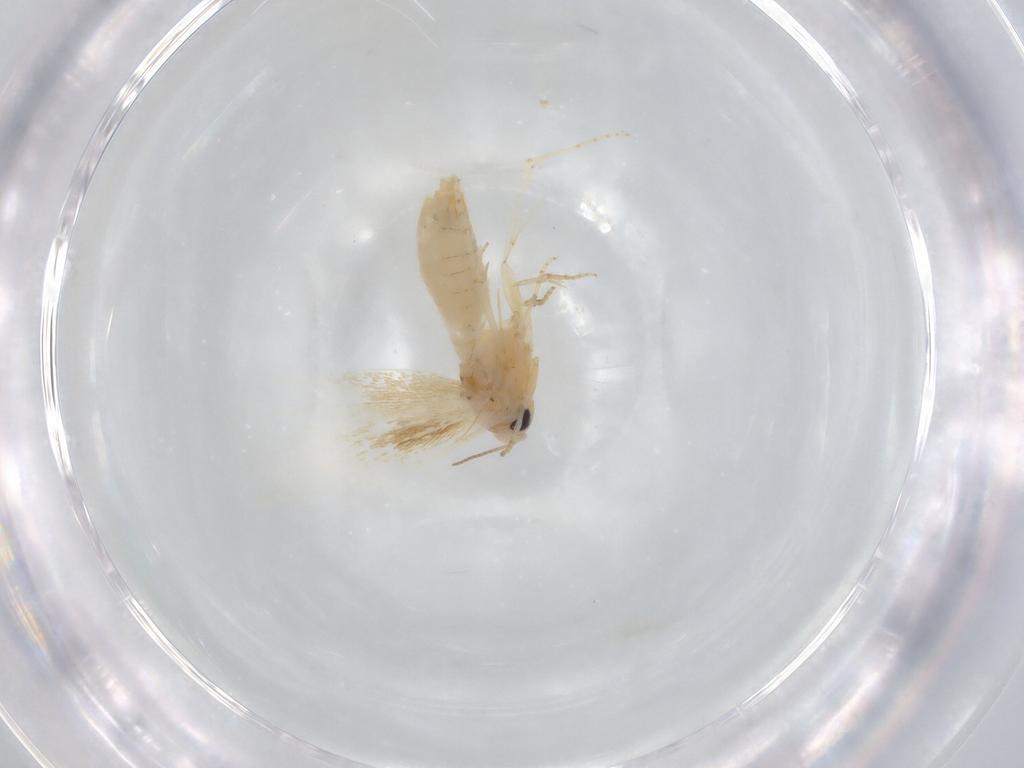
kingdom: Animalia
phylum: Arthropoda
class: Insecta
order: Lepidoptera
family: Bucculatricidae
